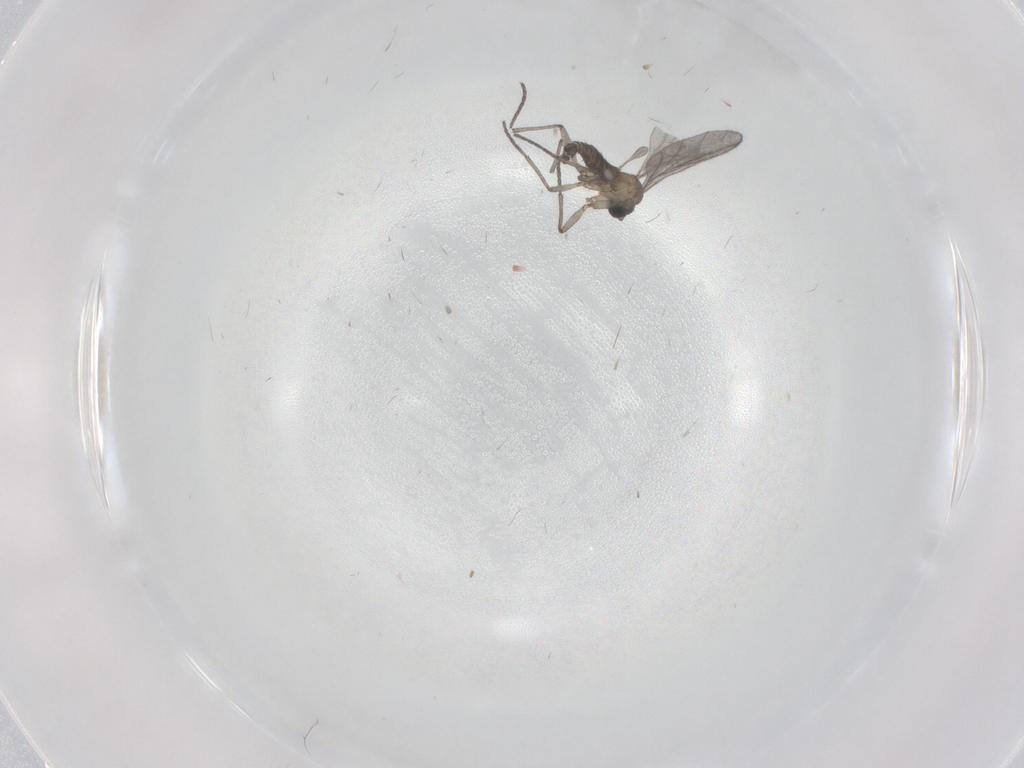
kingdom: Animalia
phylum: Arthropoda
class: Insecta
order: Diptera
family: Sciaridae
